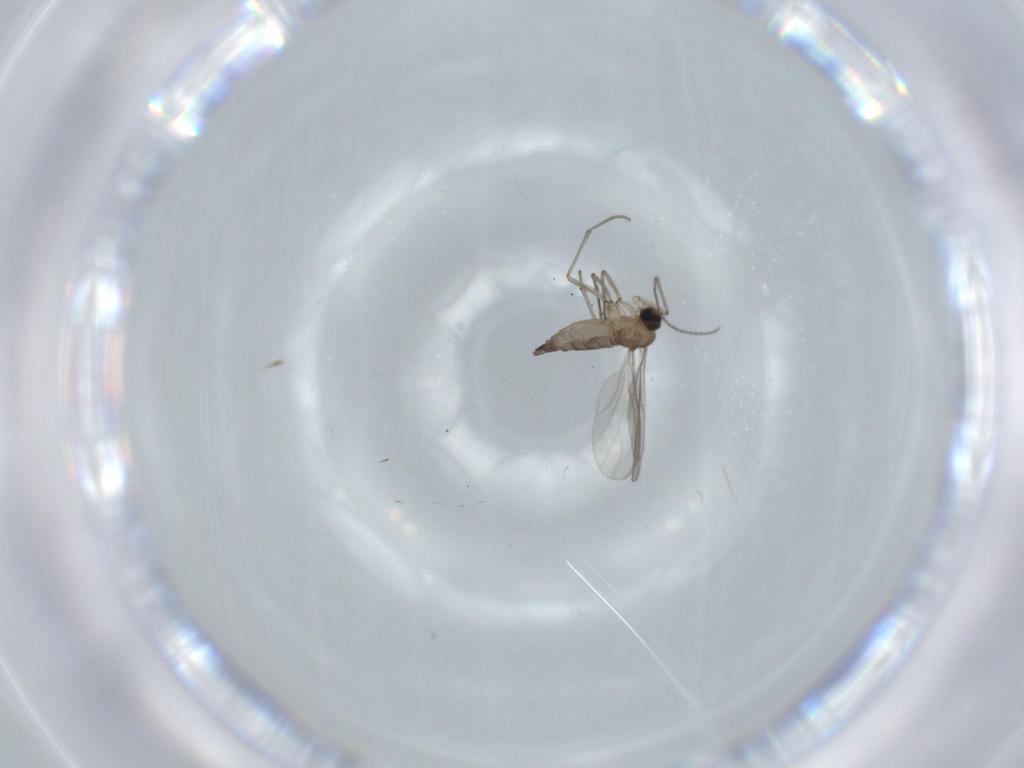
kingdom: Animalia
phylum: Arthropoda
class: Insecta
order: Diptera
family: Sciaridae
